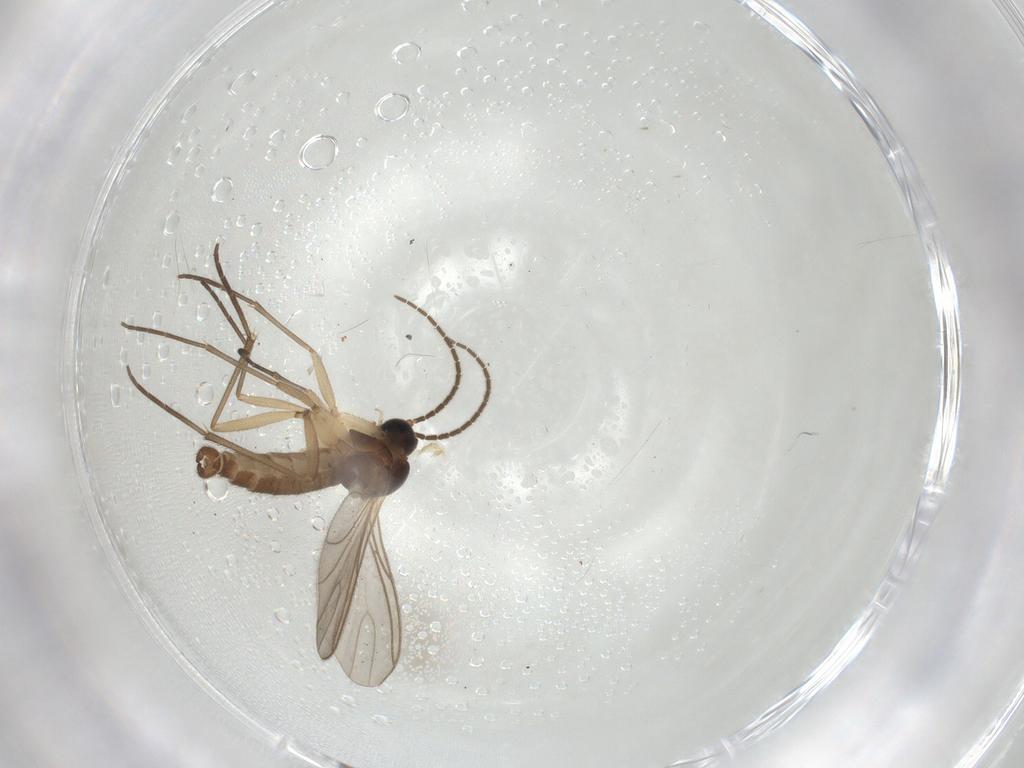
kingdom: Animalia
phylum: Arthropoda
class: Insecta
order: Diptera
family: Sciaridae
